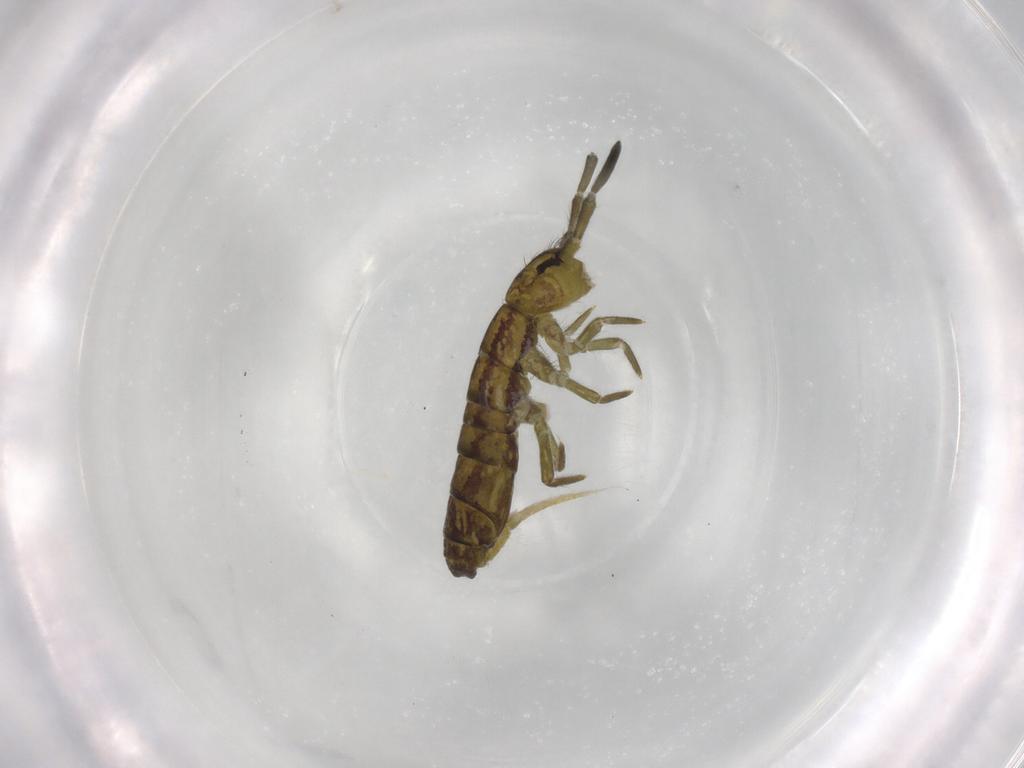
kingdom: Animalia
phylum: Arthropoda
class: Collembola
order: Entomobryomorpha
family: Isotomidae
